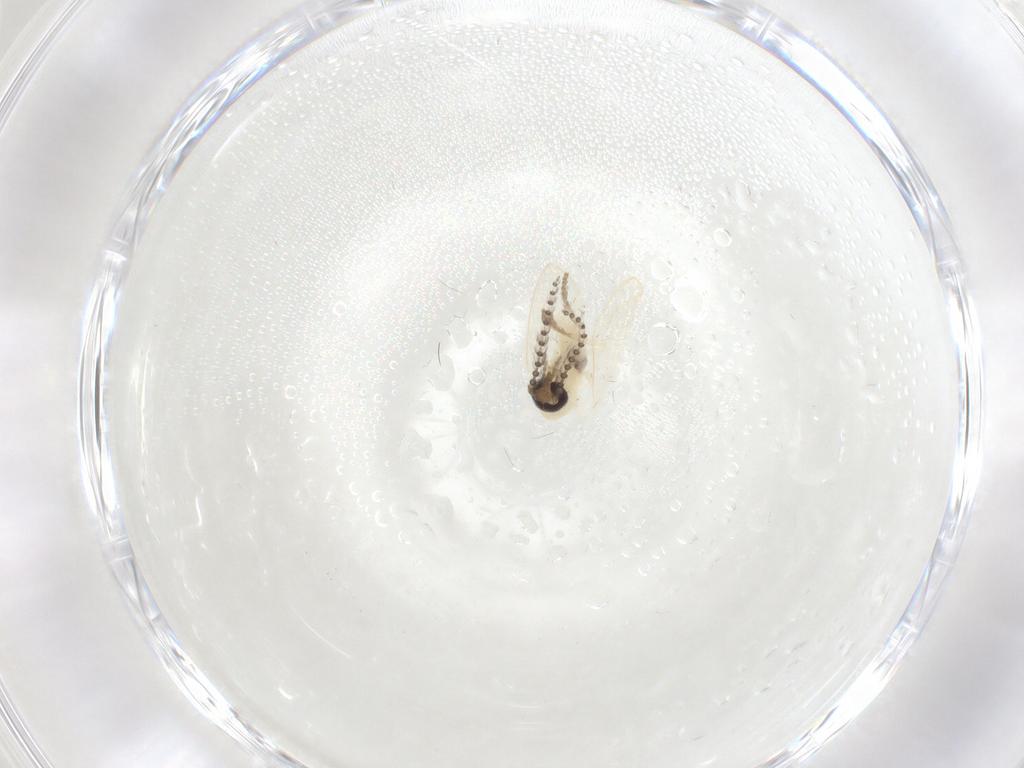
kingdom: Animalia
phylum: Arthropoda
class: Insecta
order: Diptera
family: Psychodidae
